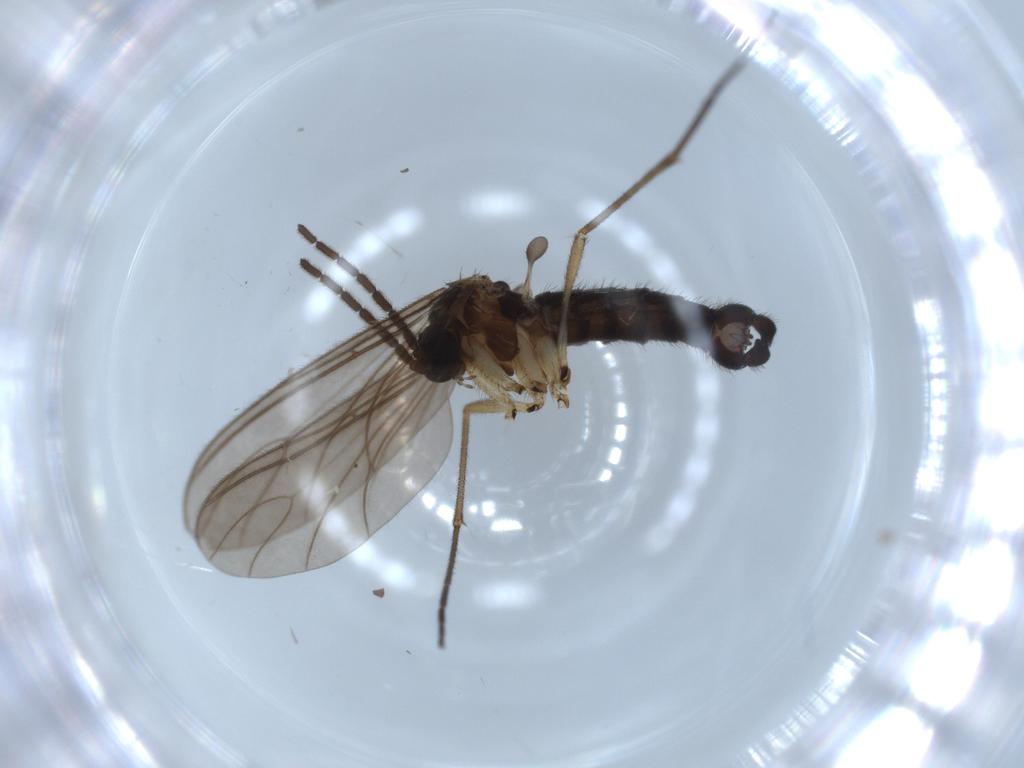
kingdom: Animalia
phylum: Arthropoda
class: Insecta
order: Diptera
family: Sciaridae
